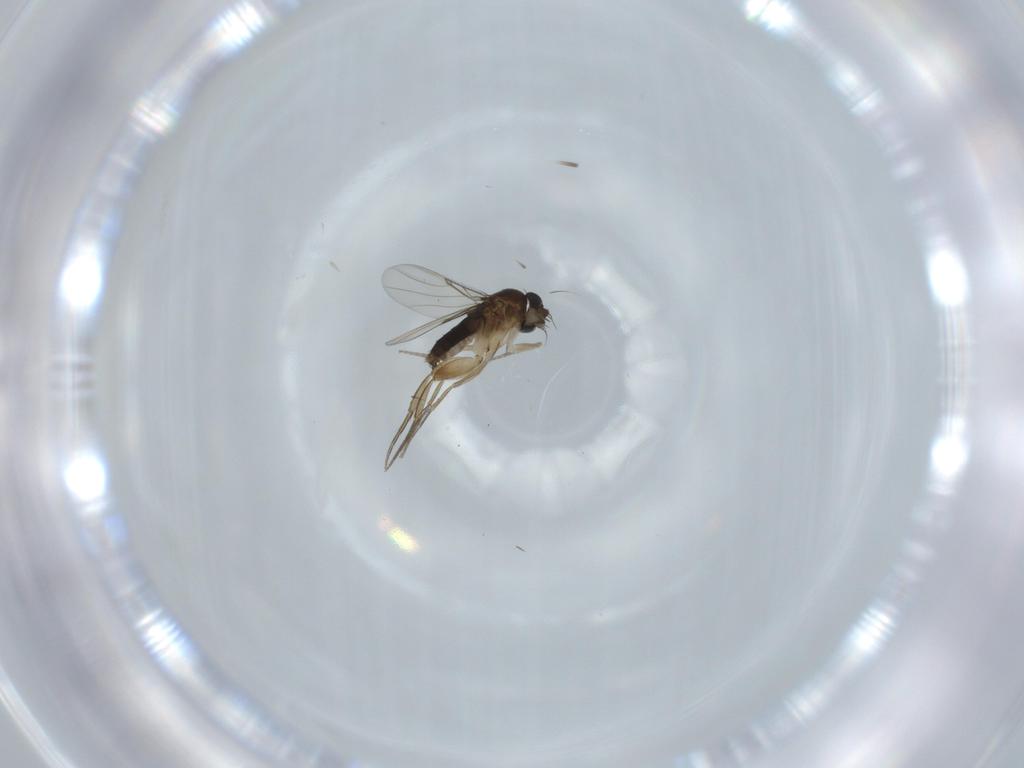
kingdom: Animalia
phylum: Arthropoda
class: Insecta
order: Diptera
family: Phoridae
